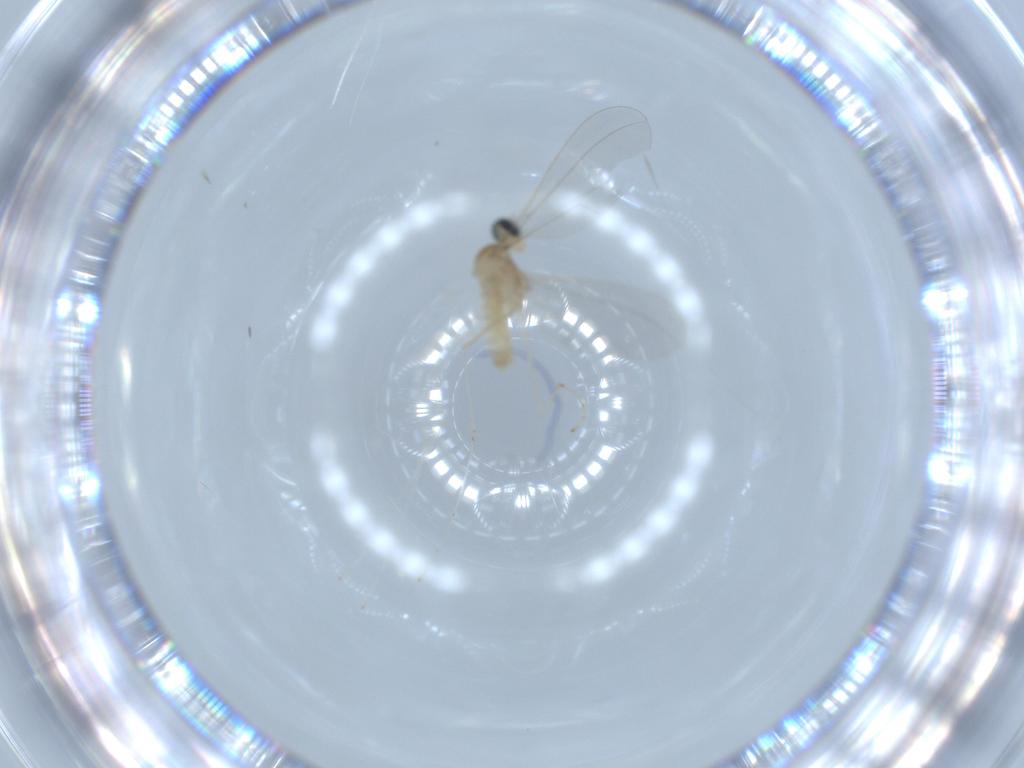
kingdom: Animalia
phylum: Arthropoda
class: Insecta
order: Diptera
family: Cecidomyiidae
